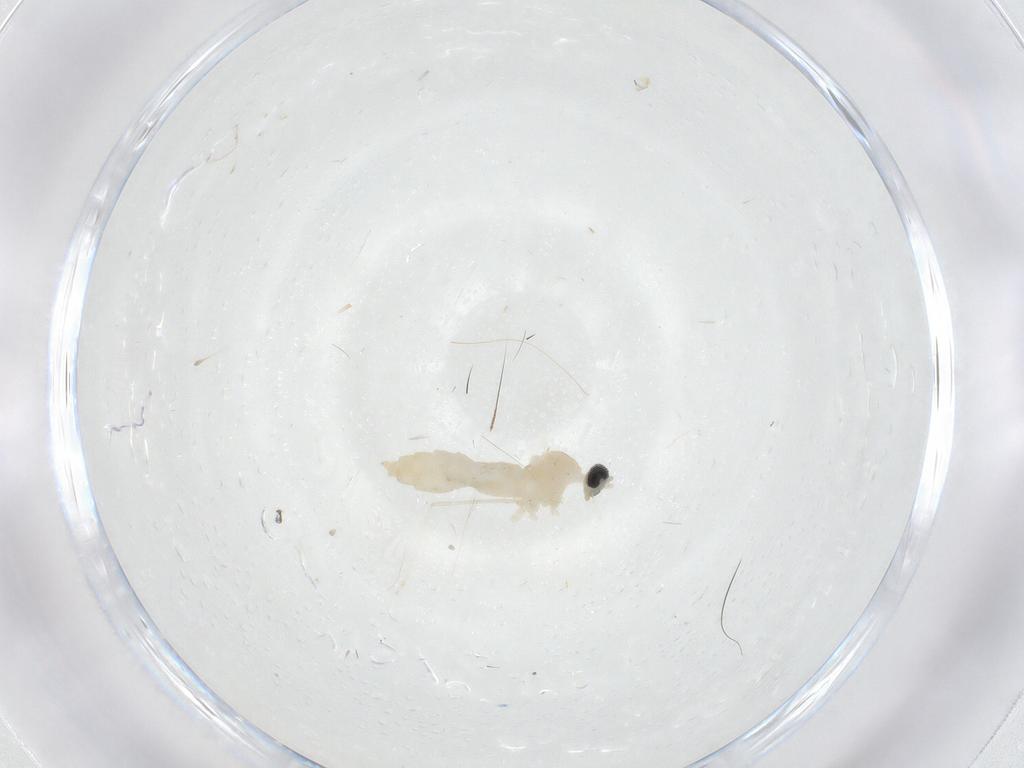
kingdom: Animalia
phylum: Arthropoda
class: Insecta
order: Diptera
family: Cecidomyiidae
